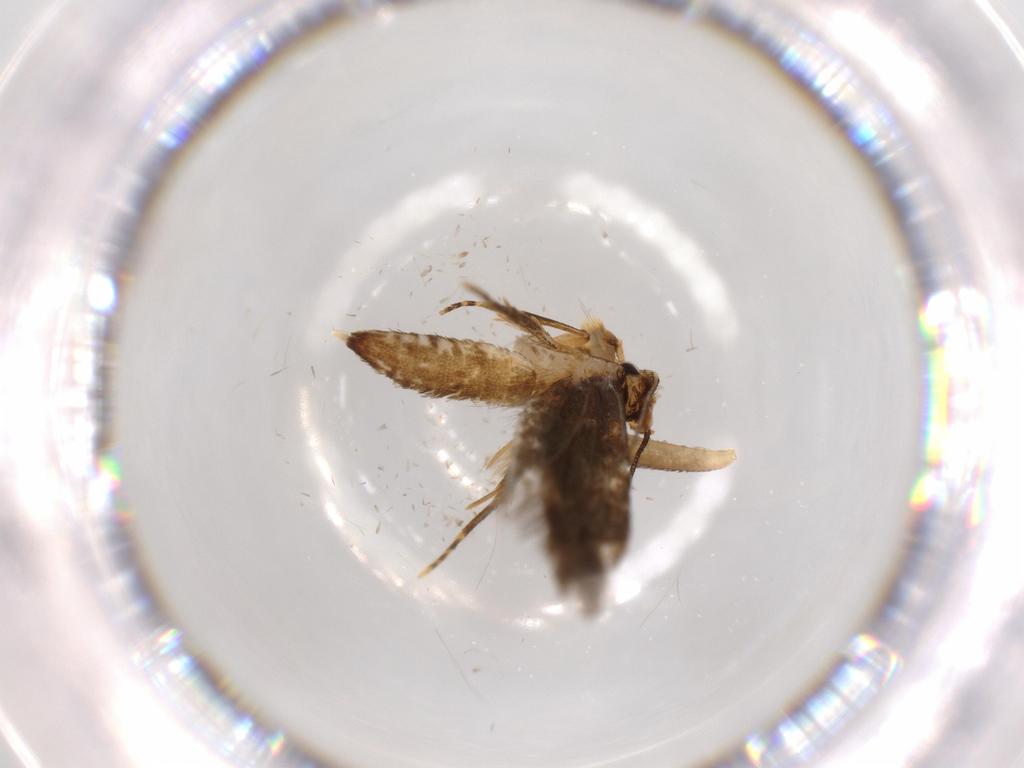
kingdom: Animalia
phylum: Arthropoda
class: Insecta
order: Lepidoptera
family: Tineidae
